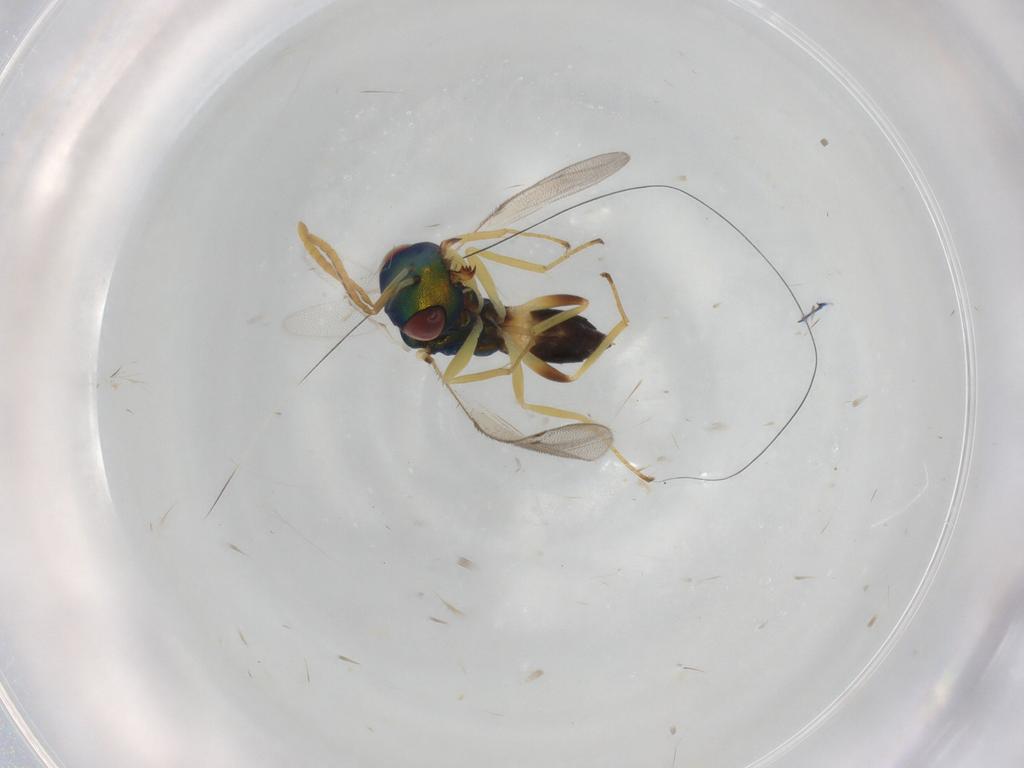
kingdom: Animalia
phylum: Arthropoda
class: Insecta
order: Hymenoptera
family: Pteromalidae
